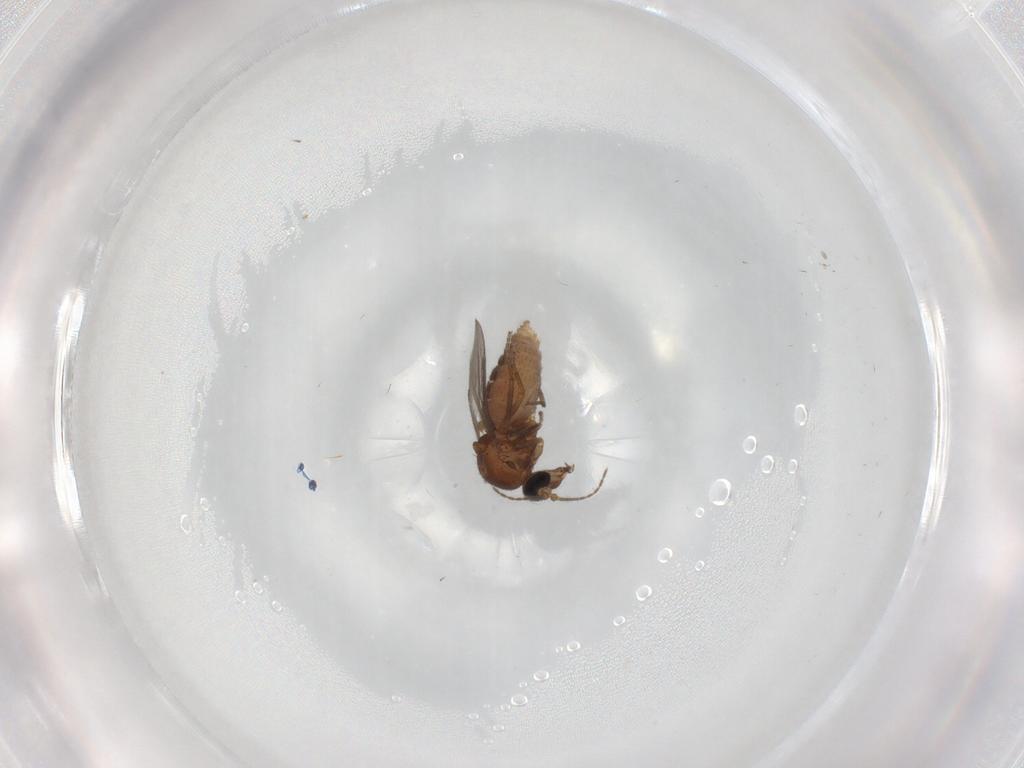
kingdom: Animalia
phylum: Arthropoda
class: Insecta
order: Diptera
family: Ceratopogonidae
